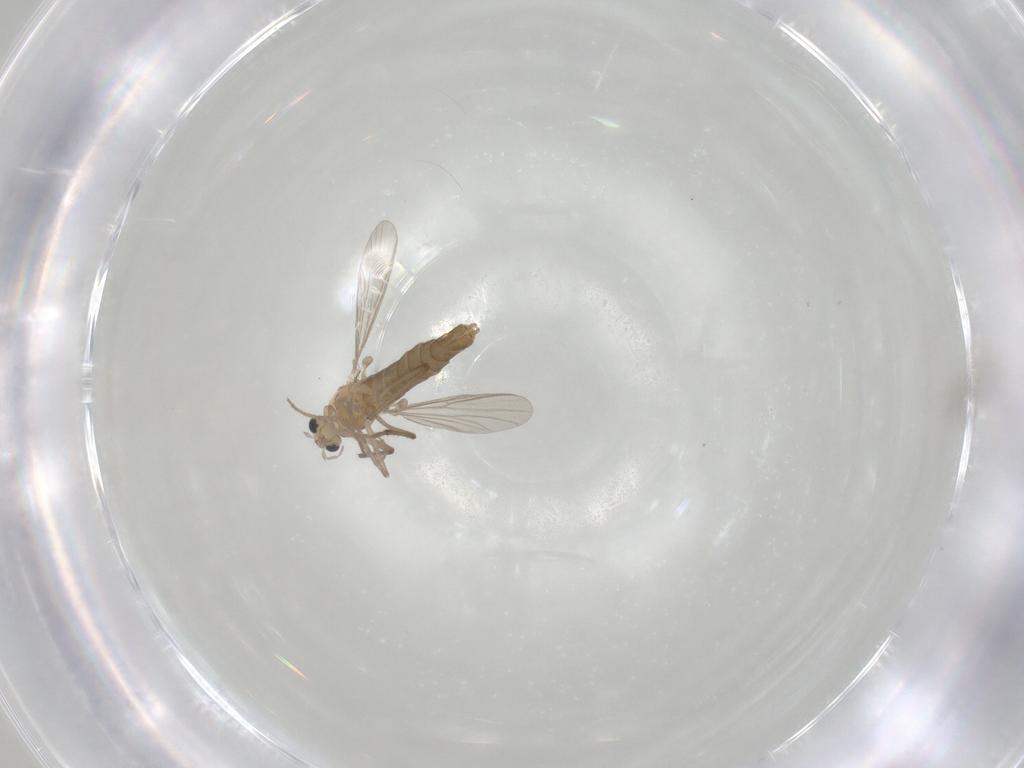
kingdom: Animalia
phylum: Arthropoda
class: Insecta
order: Diptera
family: Chironomidae
